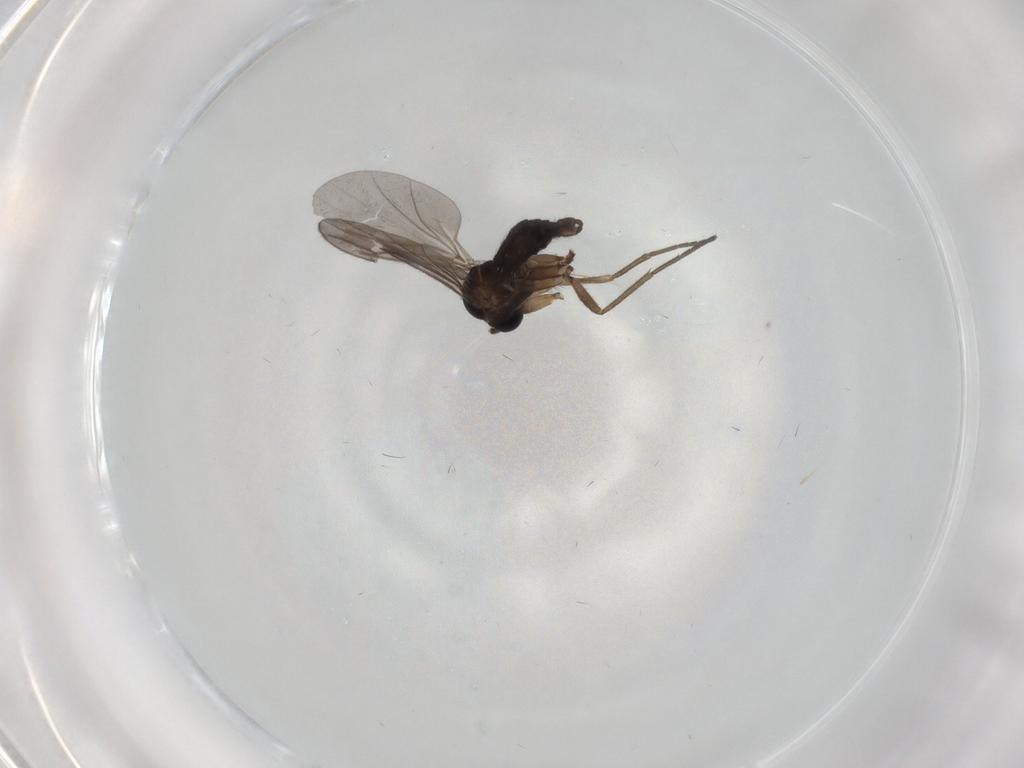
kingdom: Animalia
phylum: Arthropoda
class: Insecta
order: Diptera
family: Sciaridae
